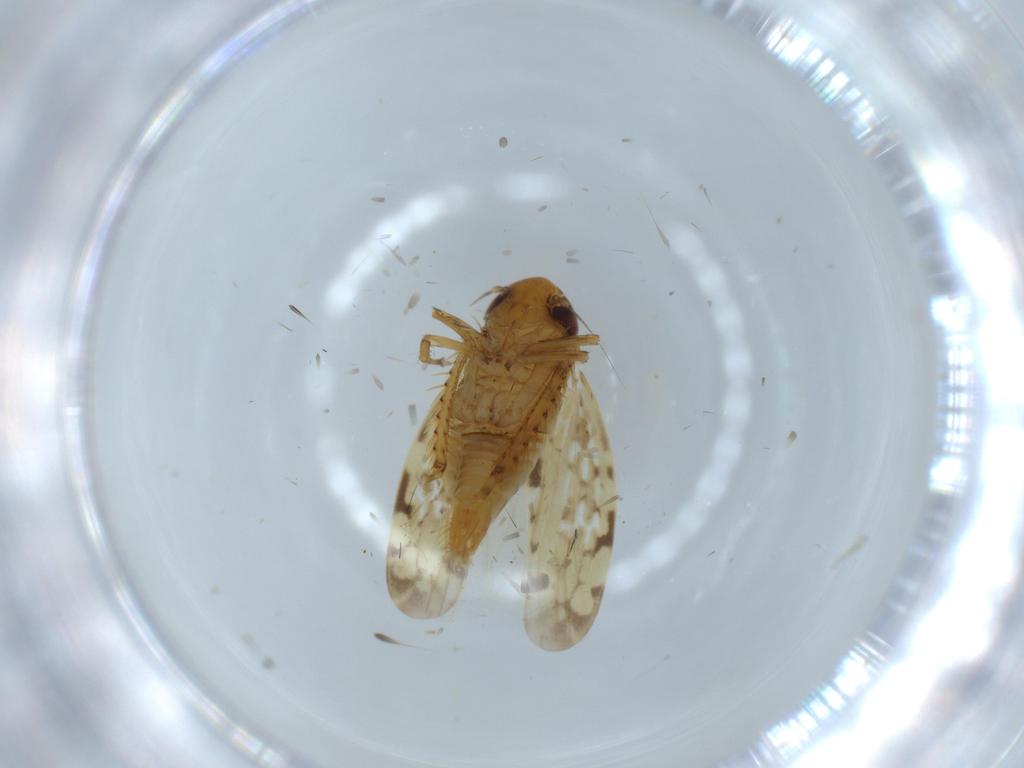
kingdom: Animalia
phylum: Arthropoda
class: Insecta
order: Hemiptera
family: Cicadellidae
